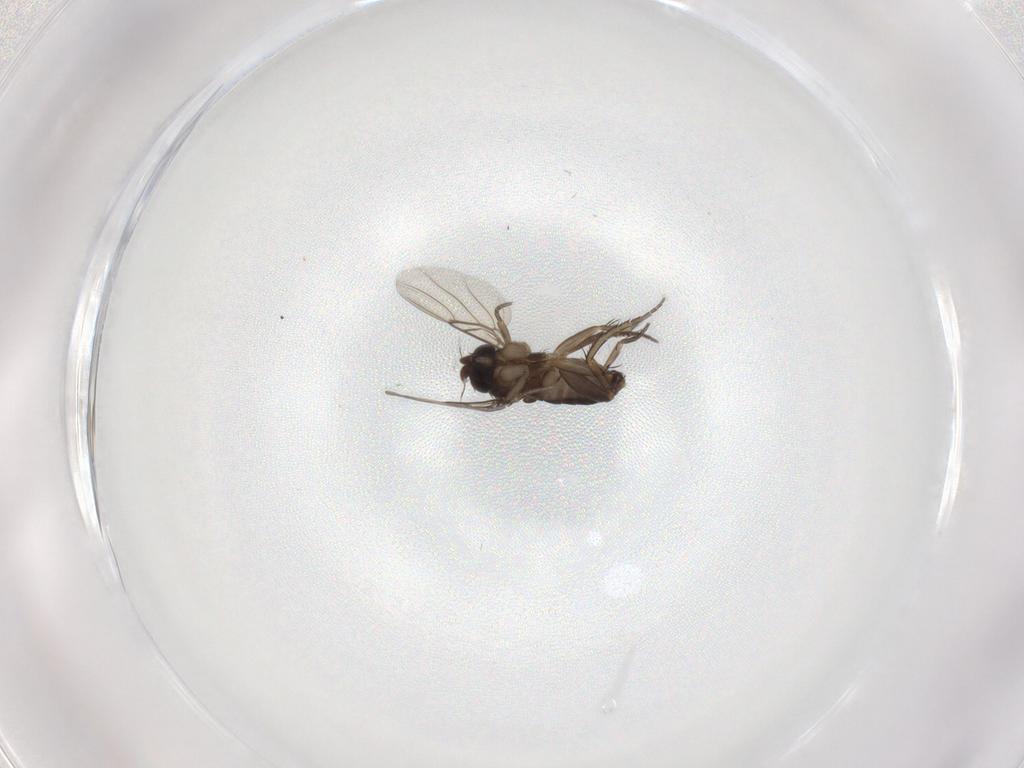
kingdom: Animalia
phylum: Arthropoda
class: Insecta
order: Diptera
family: Phoridae
